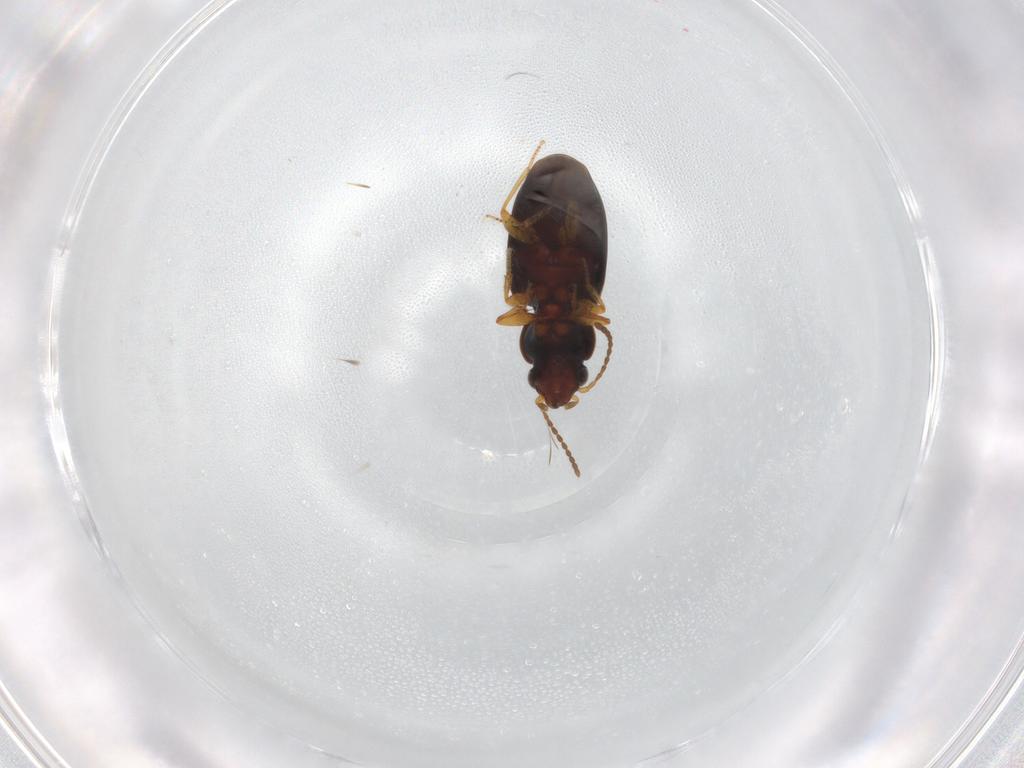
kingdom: Animalia
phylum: Arthropoda
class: Insecta
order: Coleoptera
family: Carabidae
